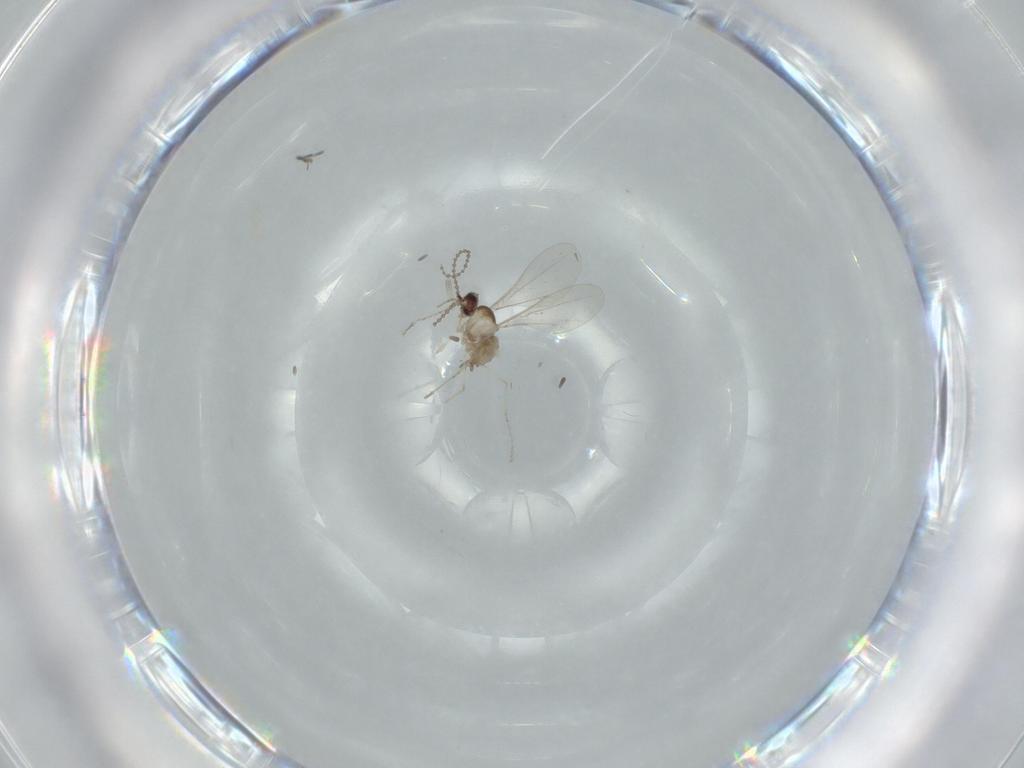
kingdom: Animalia
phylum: Arthropoda
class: Insecta
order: Diptera
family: Cecidomyiidae
